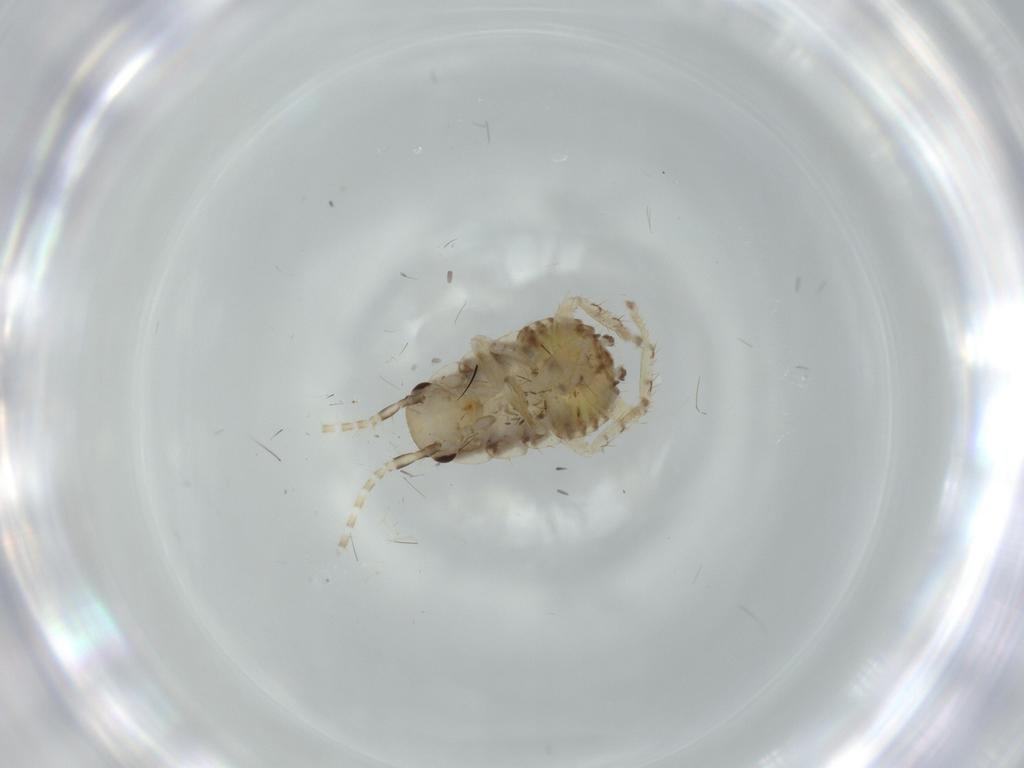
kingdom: Animalia
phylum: Arthropoda
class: Insecta
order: Blattodea
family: Ectobiidae
